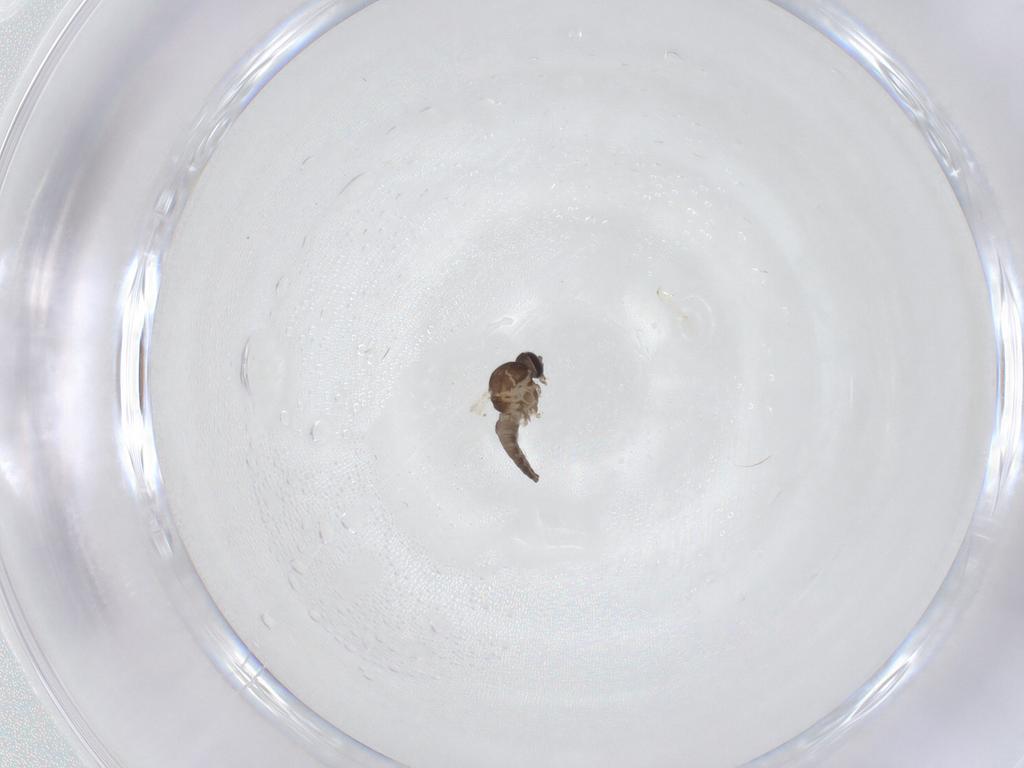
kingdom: Animalia
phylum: Arthropoda
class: Insecta
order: Diptera
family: Ceratopogonidae
